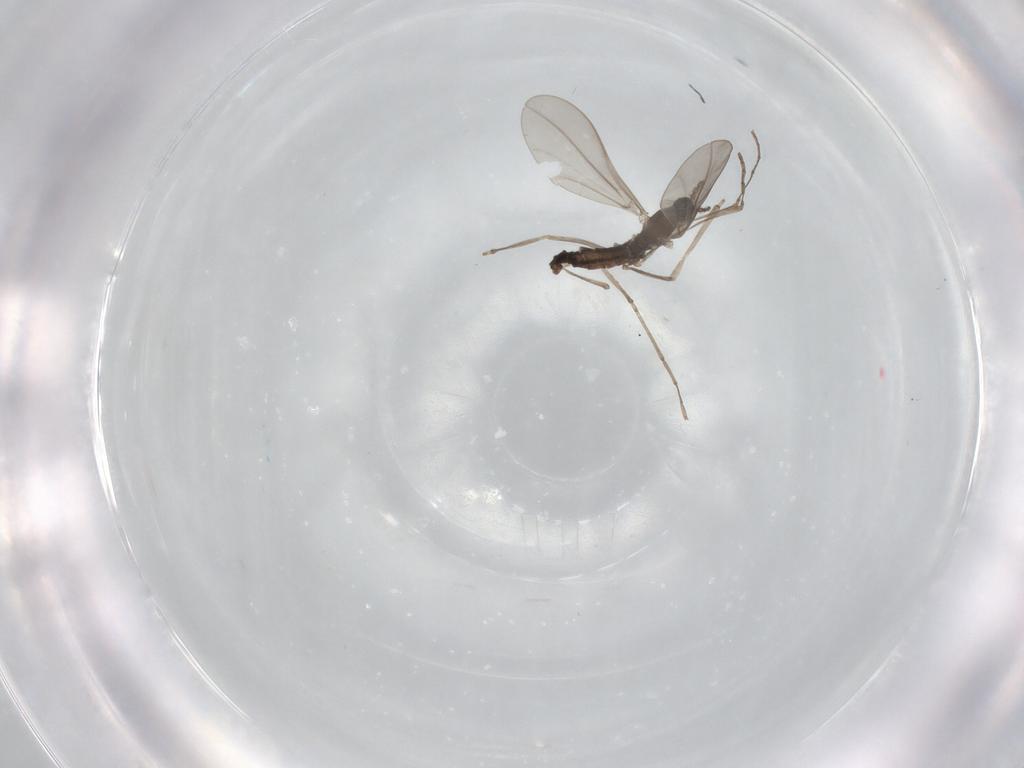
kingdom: Animalia
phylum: Arthropoda
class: Insecta
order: Diptera
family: Cecidomyiidae
